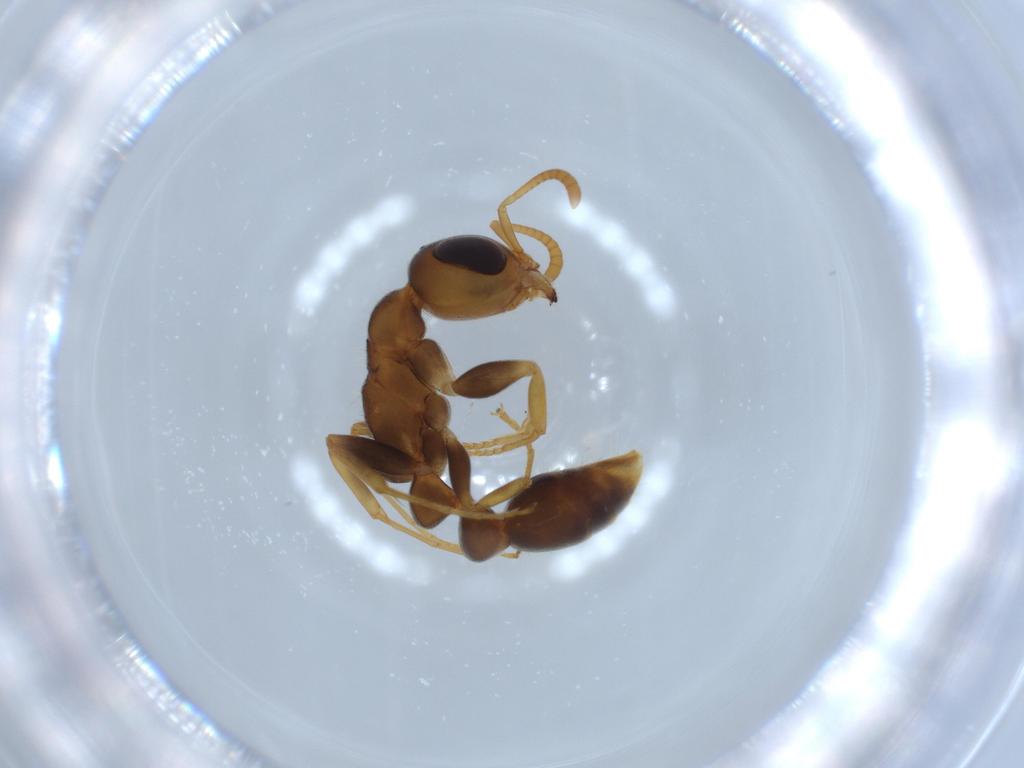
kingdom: Animalia
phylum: Arthropoda
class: Insecta
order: Hymenoptera
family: Formicidae
